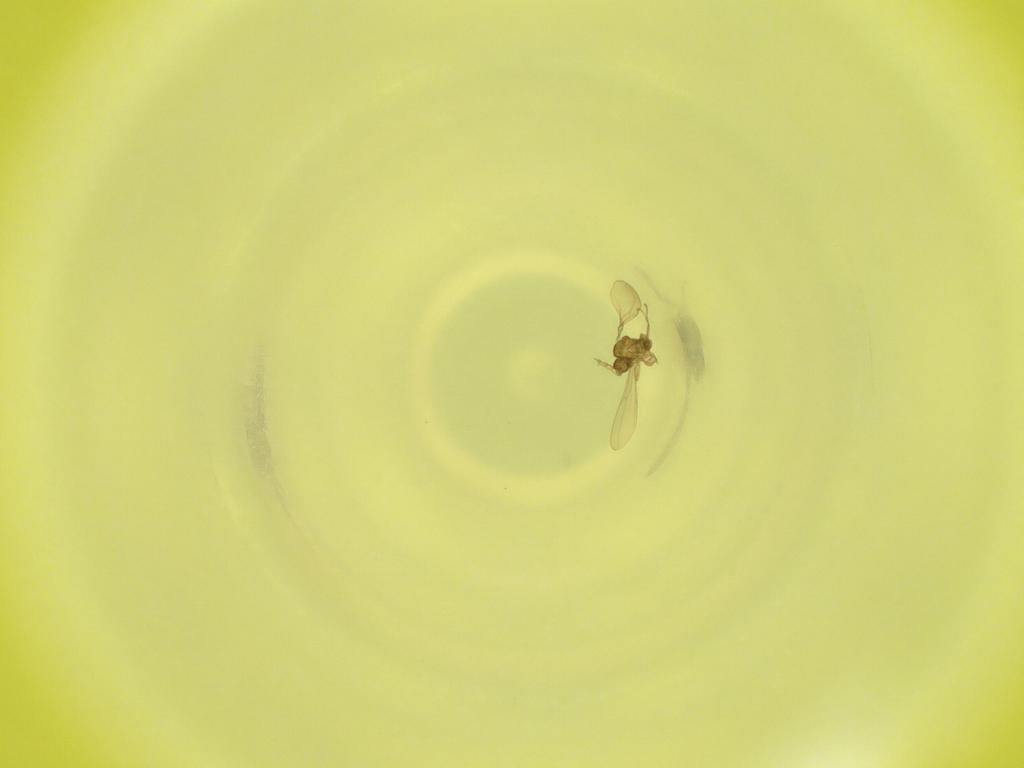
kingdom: Animalia
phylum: Arthropoda
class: Insecta
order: Diptera
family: Cecidomyiidae
